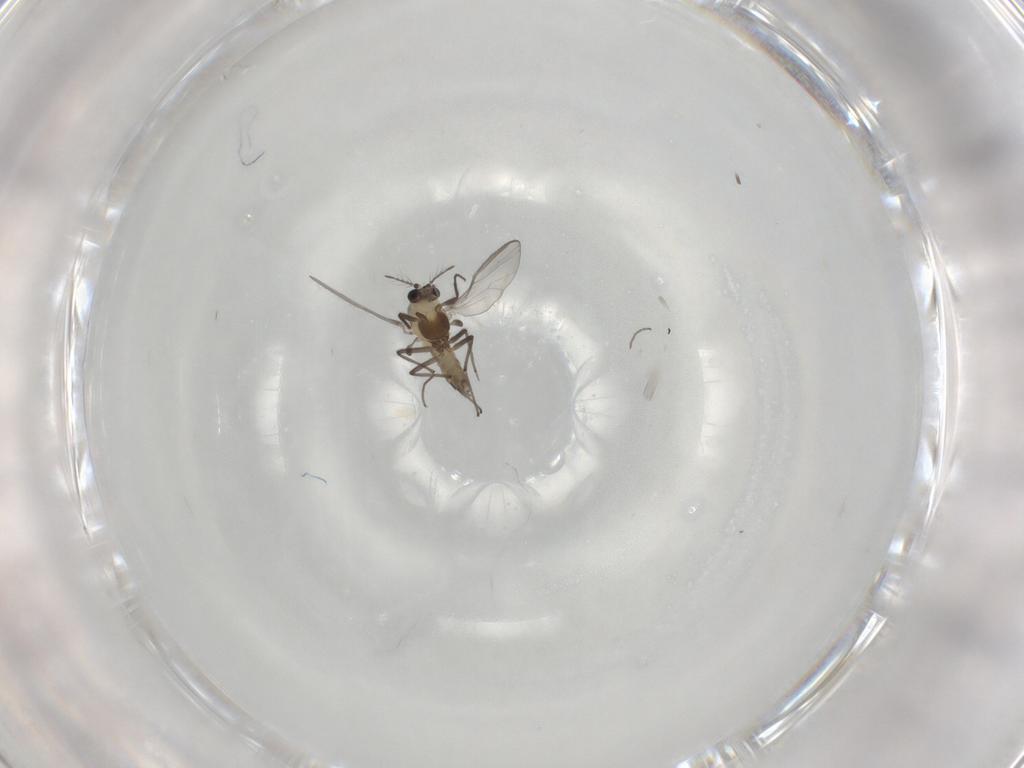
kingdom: Animalia
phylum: Arthropoda
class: Insecta
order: Diptera
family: Chironomidae
